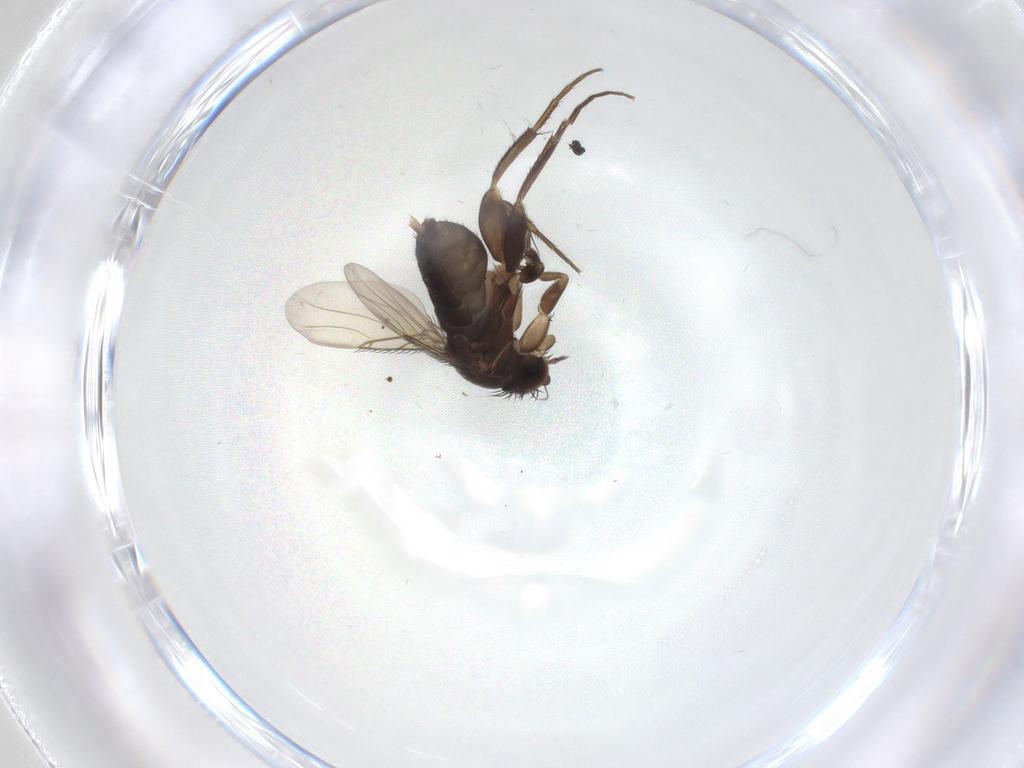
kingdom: Animalia
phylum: Arthropoda
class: Insecta
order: Diptera
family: Phoridae
